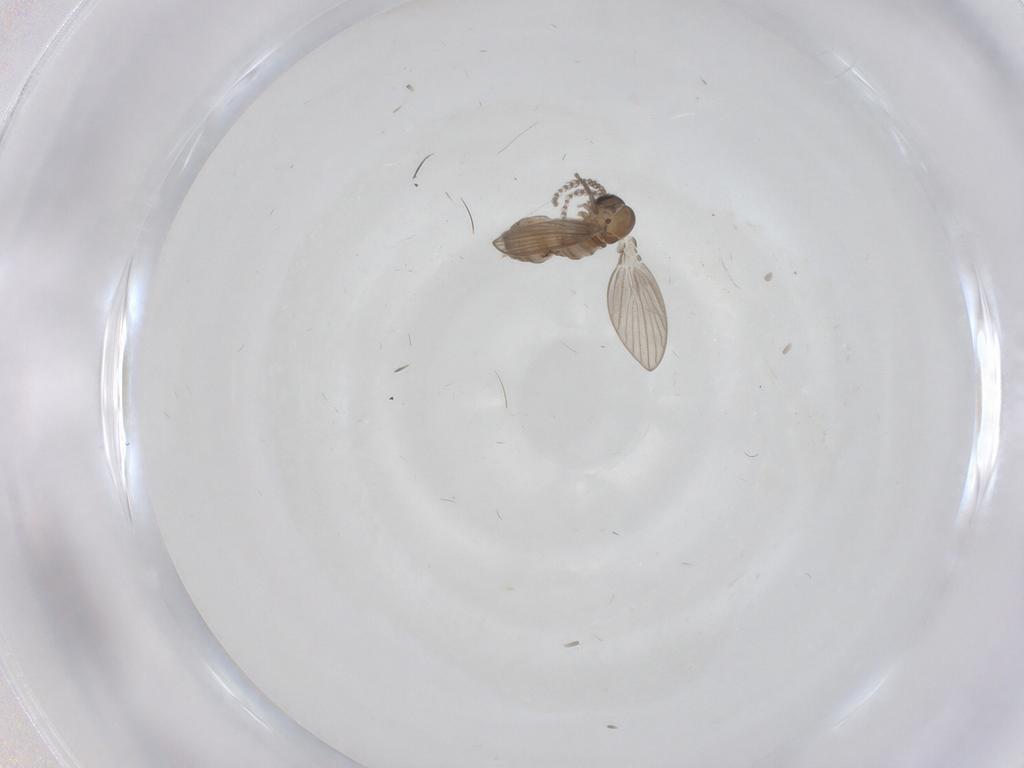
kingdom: Animalia
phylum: Arthropoda
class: Insecta
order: Diptera
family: Psychodidae
